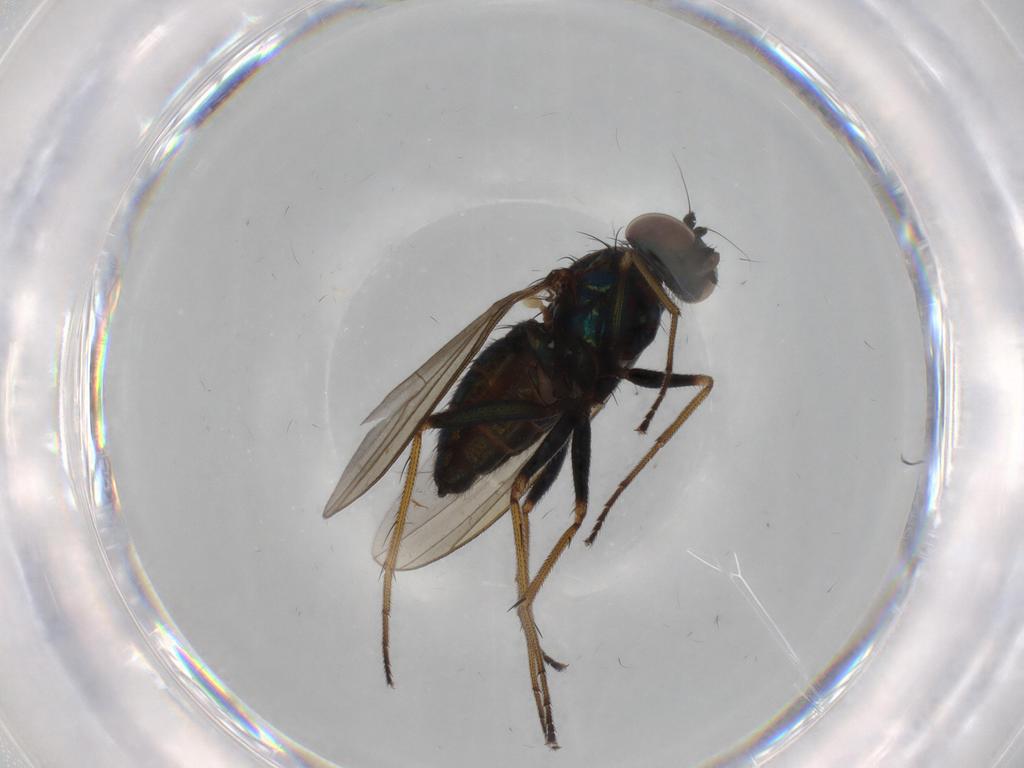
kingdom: Animalia
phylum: Arthropoda
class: Insecta
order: Diptera
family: Dolichopodidae
